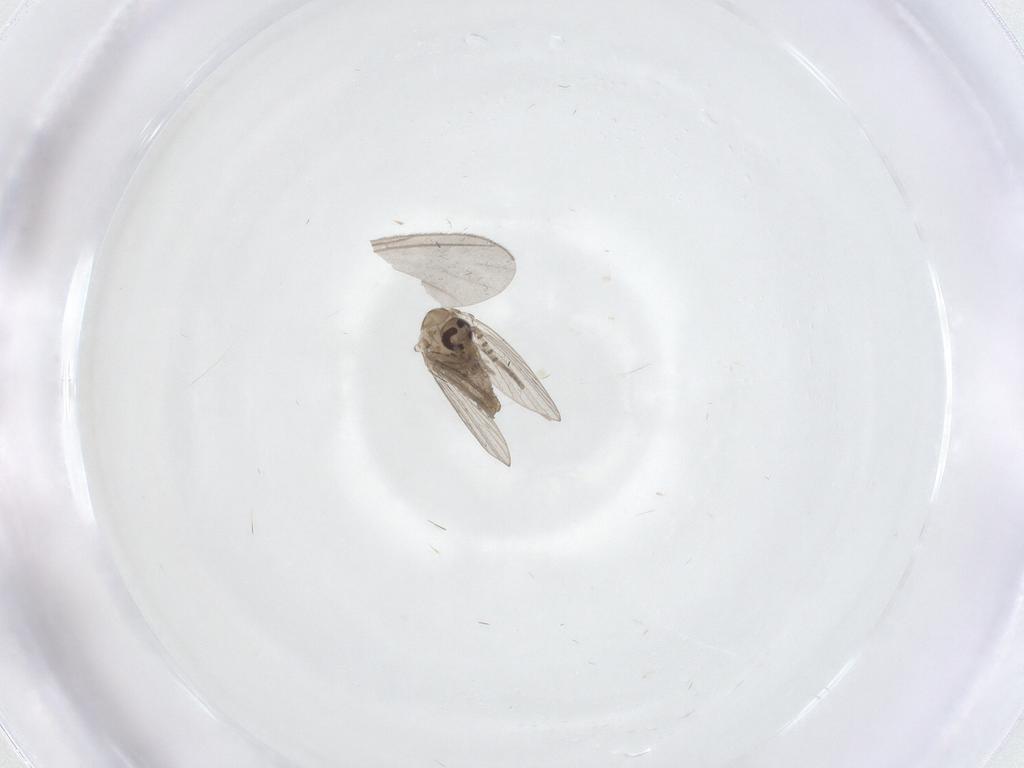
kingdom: Animalia
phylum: Arthropoda
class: Insecta
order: Diptera
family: Psychodidae
